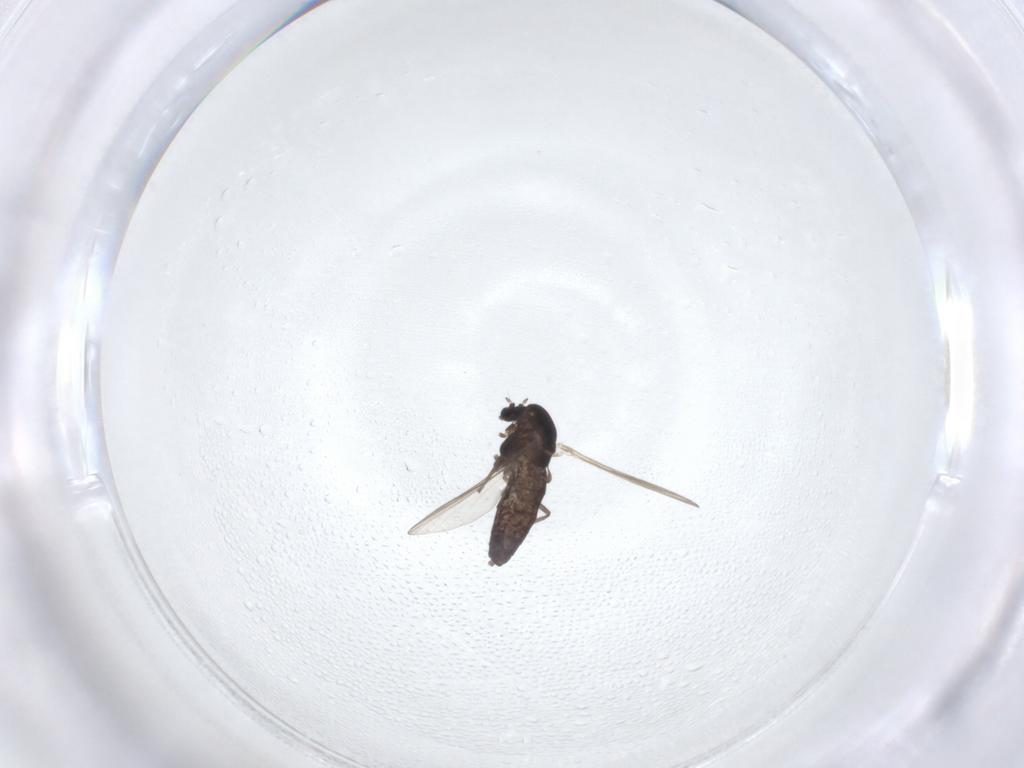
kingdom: Animalia
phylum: Arthropoda
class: Insecta
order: Diptera
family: Chironomidae
